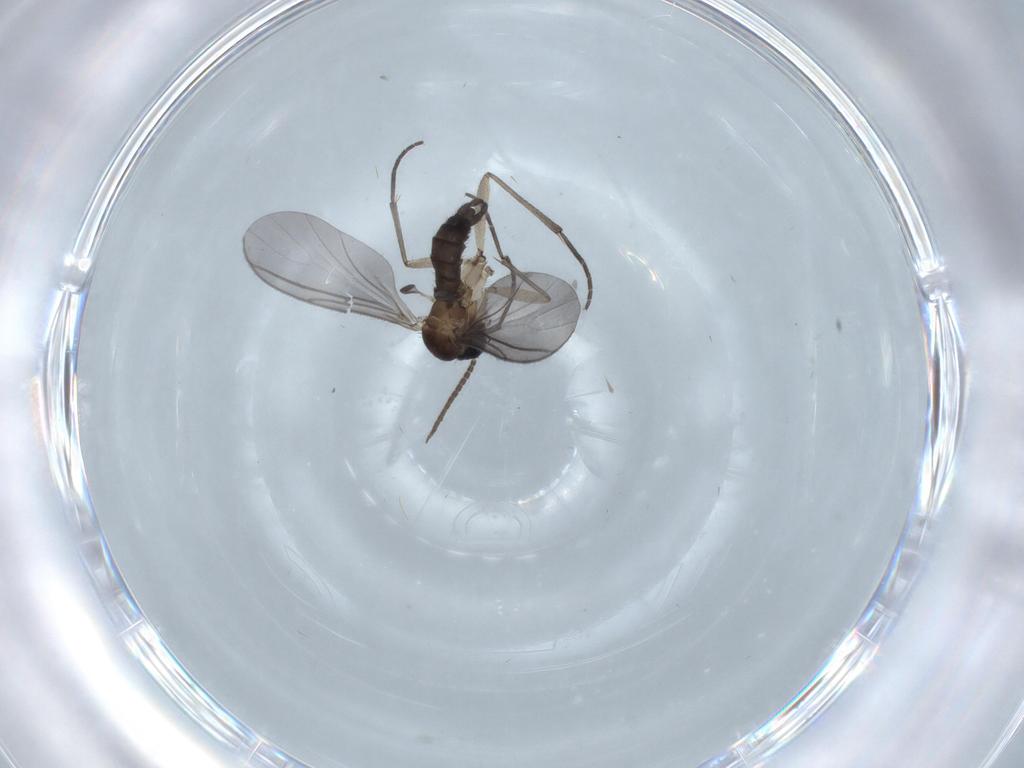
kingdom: Animalia
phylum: Arthropoda
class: Insecta
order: Diptera
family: Cecidomyiidae
